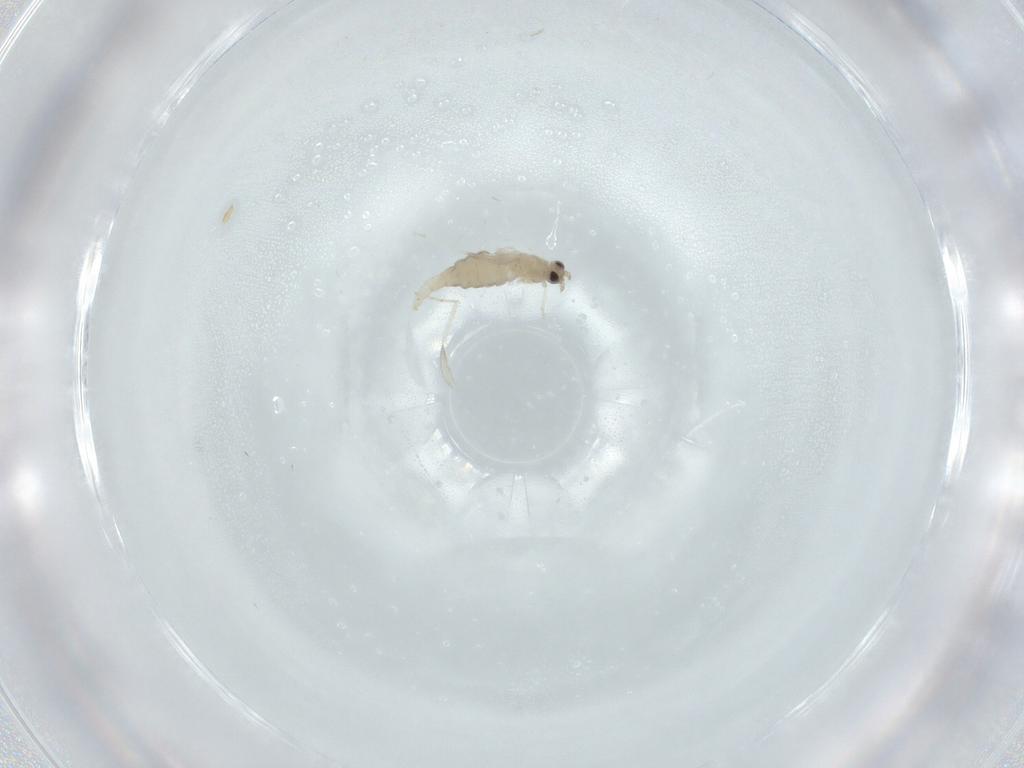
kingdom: Animalia
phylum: Arthropoda
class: Insecta
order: Diptera
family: Cecidomyiidae
